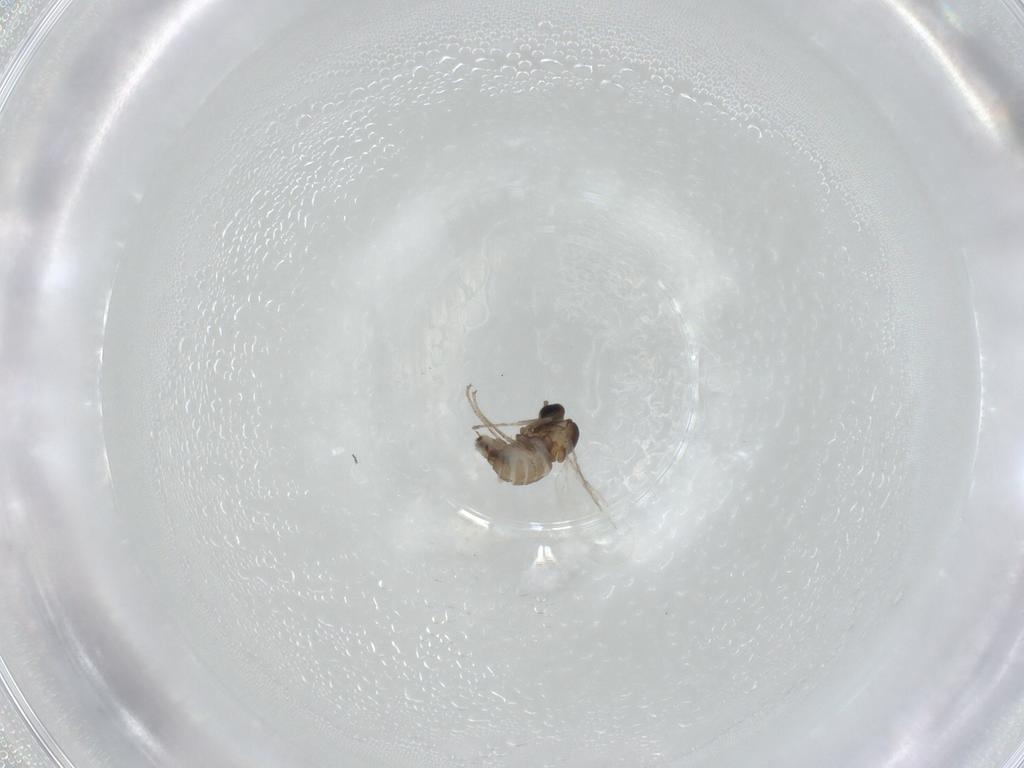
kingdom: Animalia
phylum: Arthropoda
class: Insecta
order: Diptera
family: Cecidomyiidae
